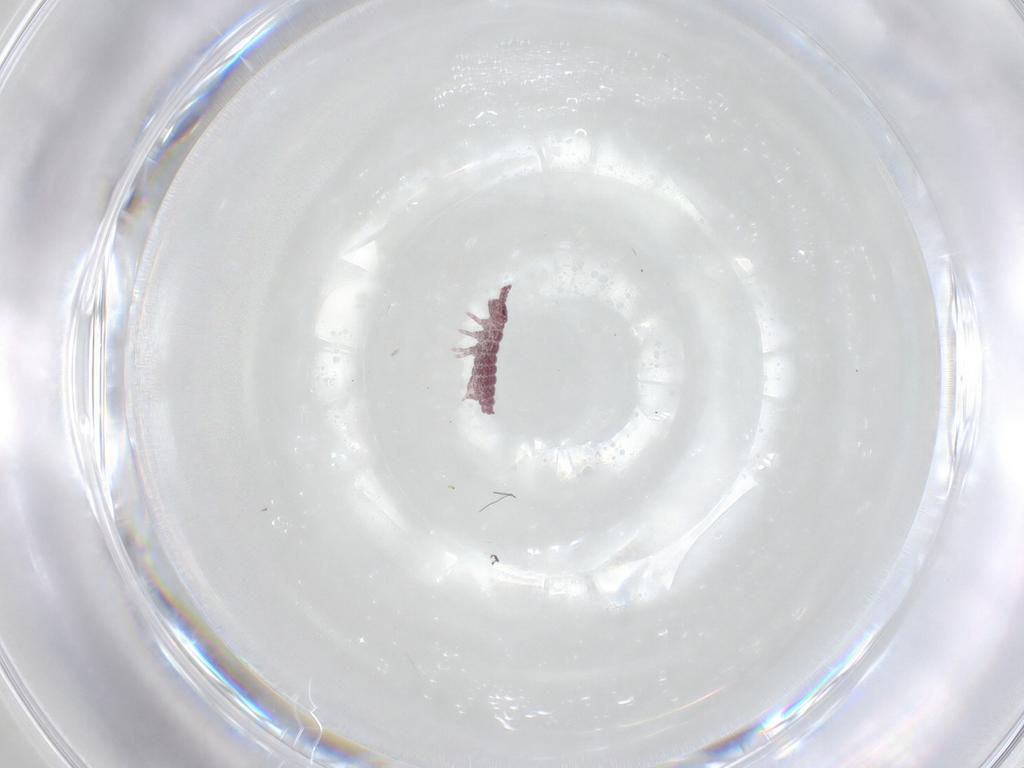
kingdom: Animalia
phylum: Arthropoda
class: Collembola
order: Poduromorpha
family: Hypogastruridae
